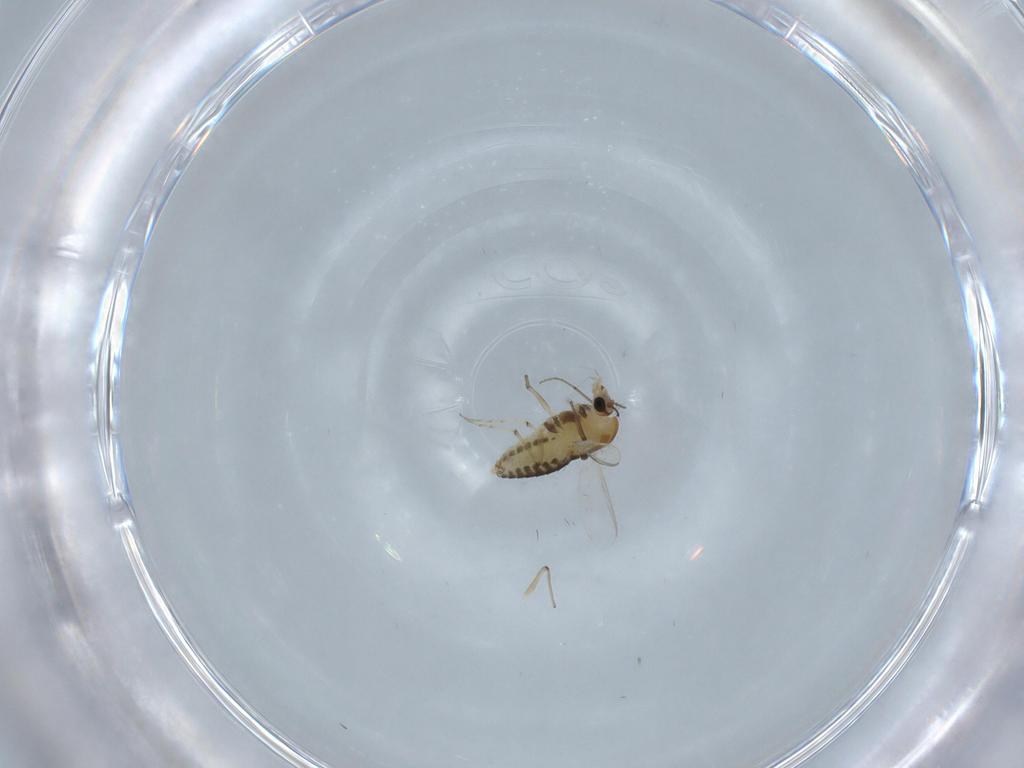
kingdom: Animalia
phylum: Arthropoda
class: Insecta
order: Diptera
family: Chironomidae
